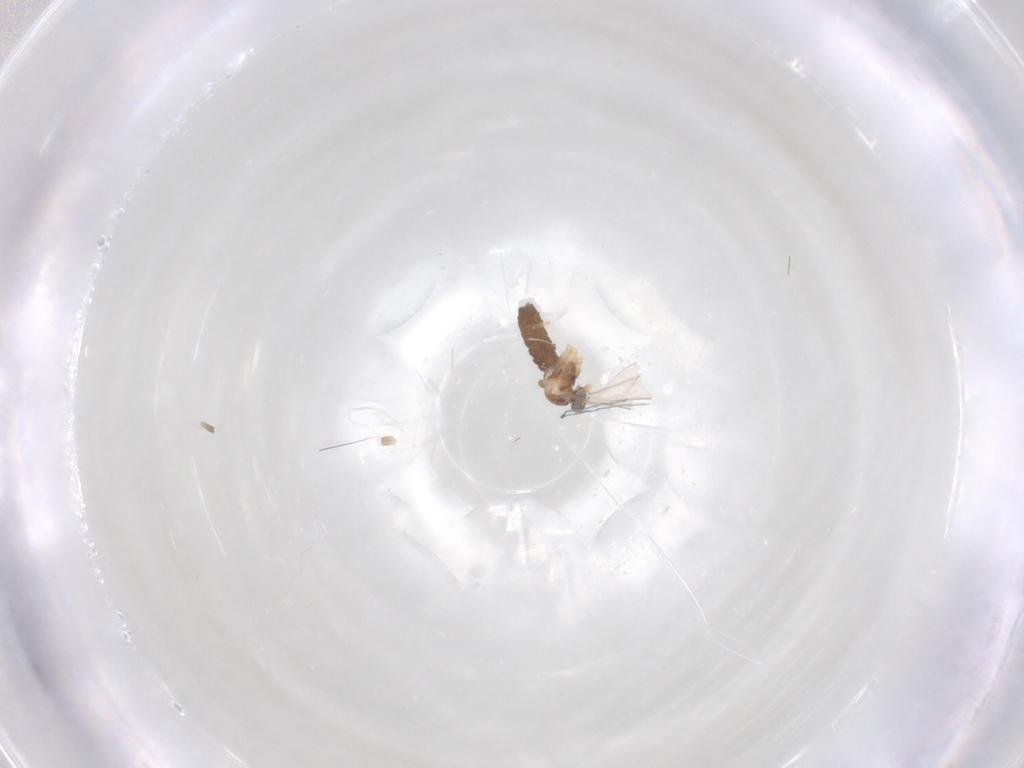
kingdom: Animalia
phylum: Arthropoda
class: Insecta
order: Diptera
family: Cecidomyiidae
